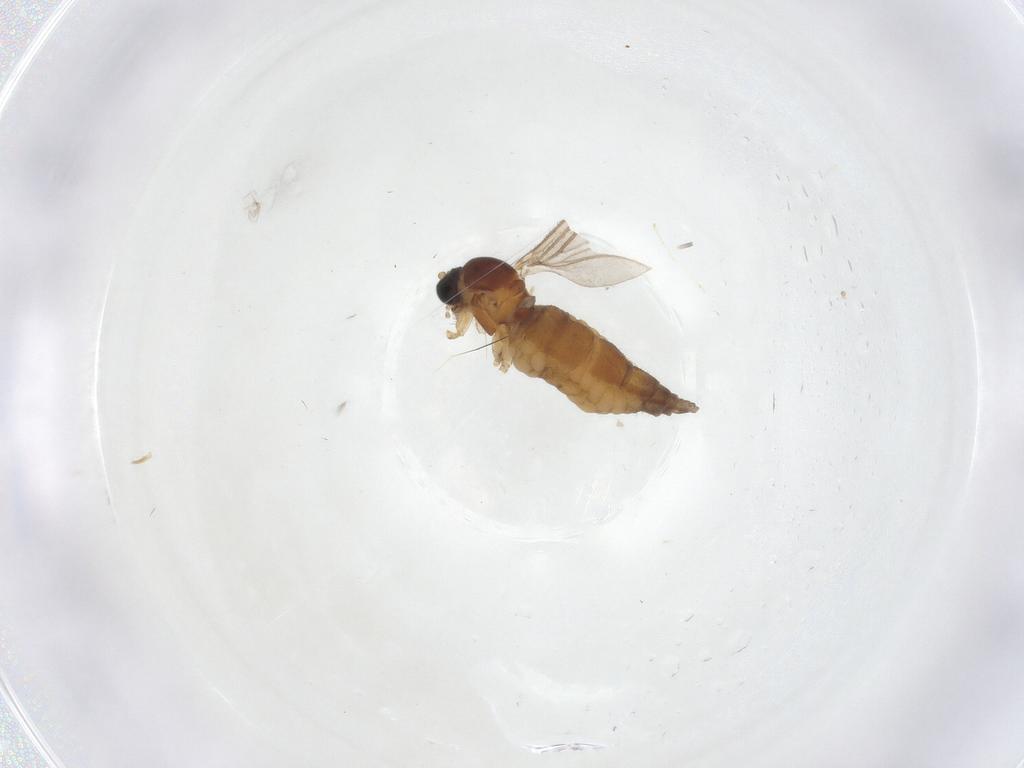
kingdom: Animalia
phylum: Arthropoda
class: Insecta
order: Diptera
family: Sciaridae
